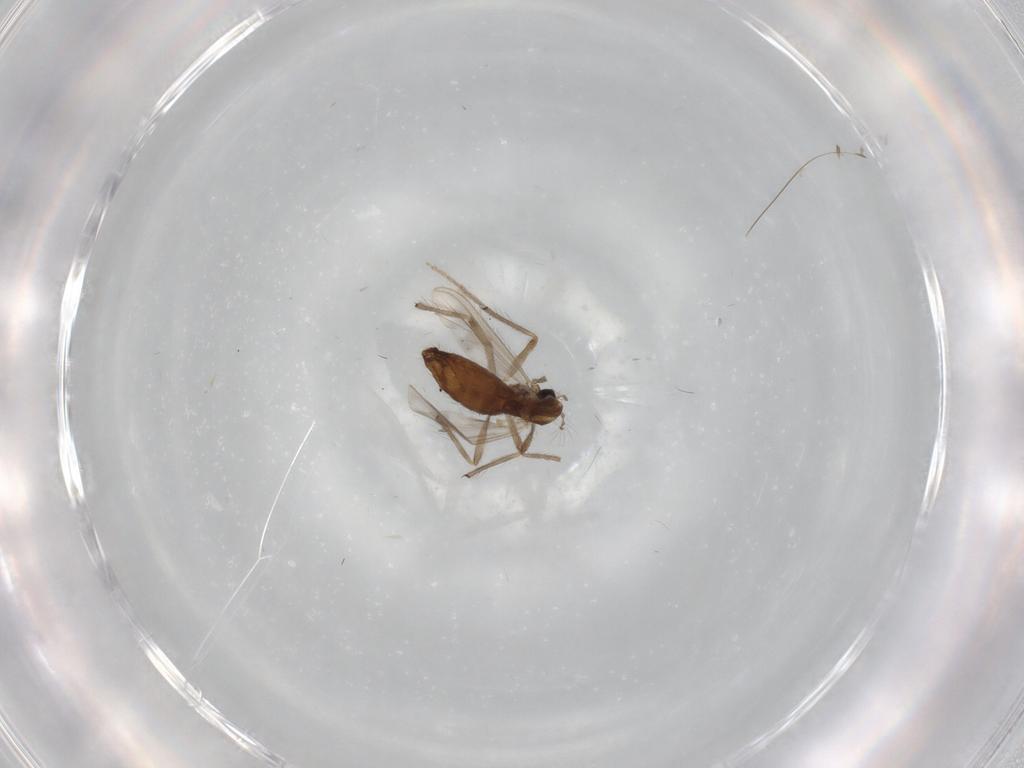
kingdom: Animalia
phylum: Arthropoda
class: Insecta
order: Diptera
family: Chironomidae
